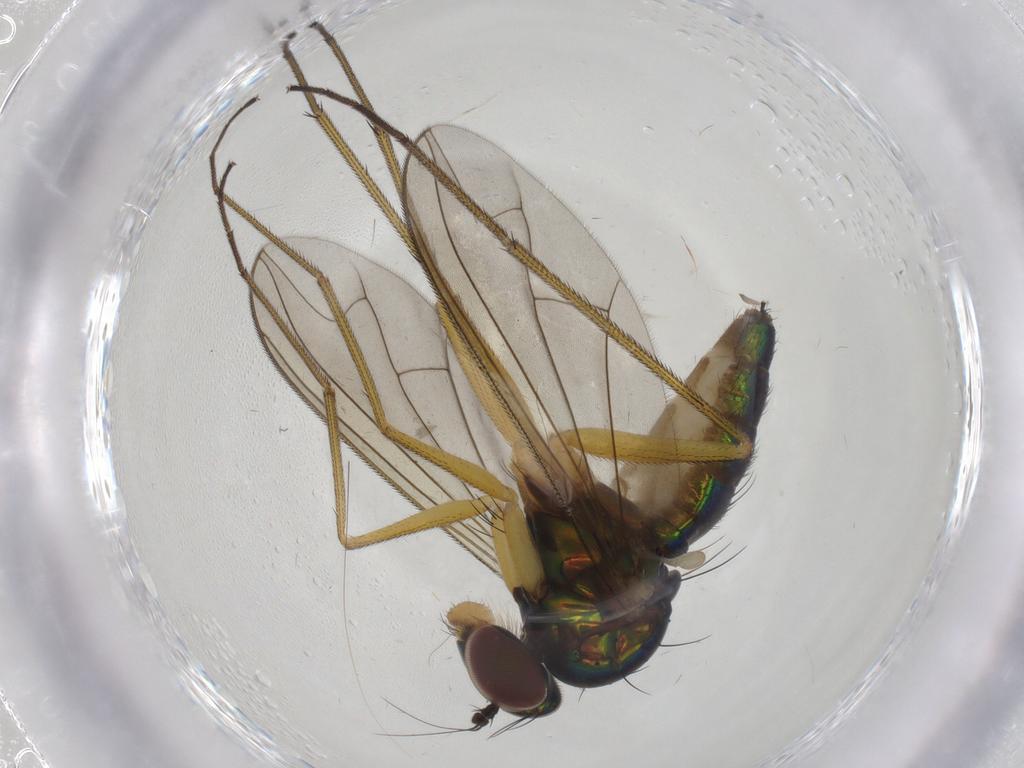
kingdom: Animalia
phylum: Arthropoda
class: Insecta
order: Diptera
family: Dolichopodidae
